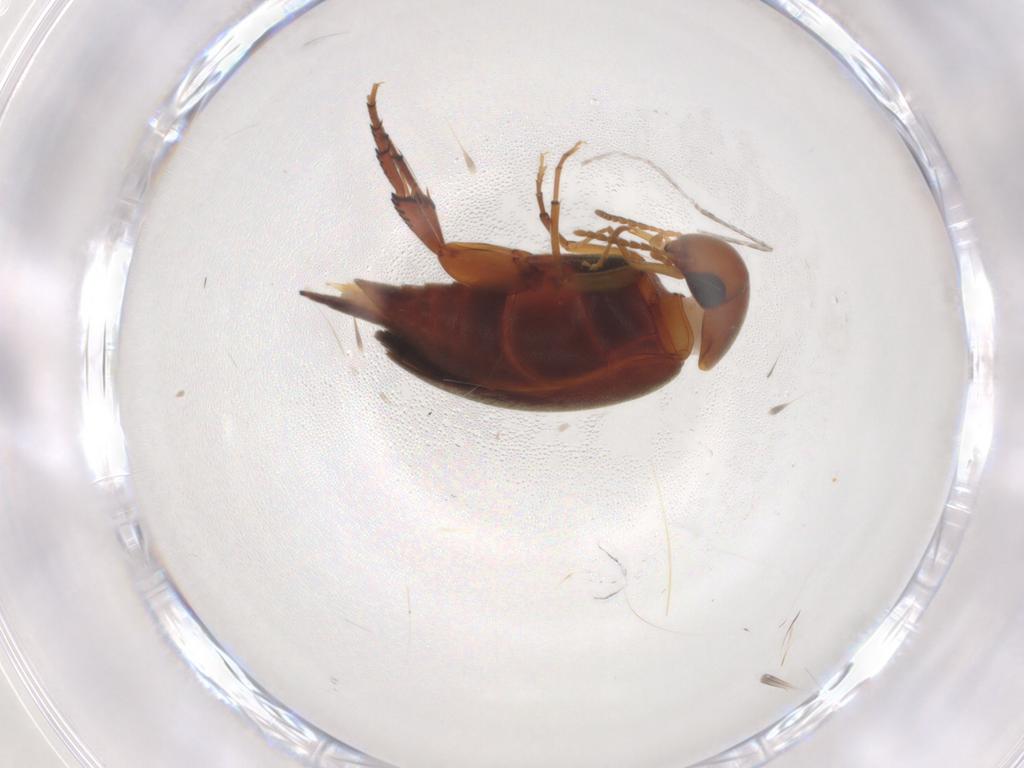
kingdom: Animalia
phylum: Arthropoda
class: Insecta
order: Coleoptera
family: Mordellidae
